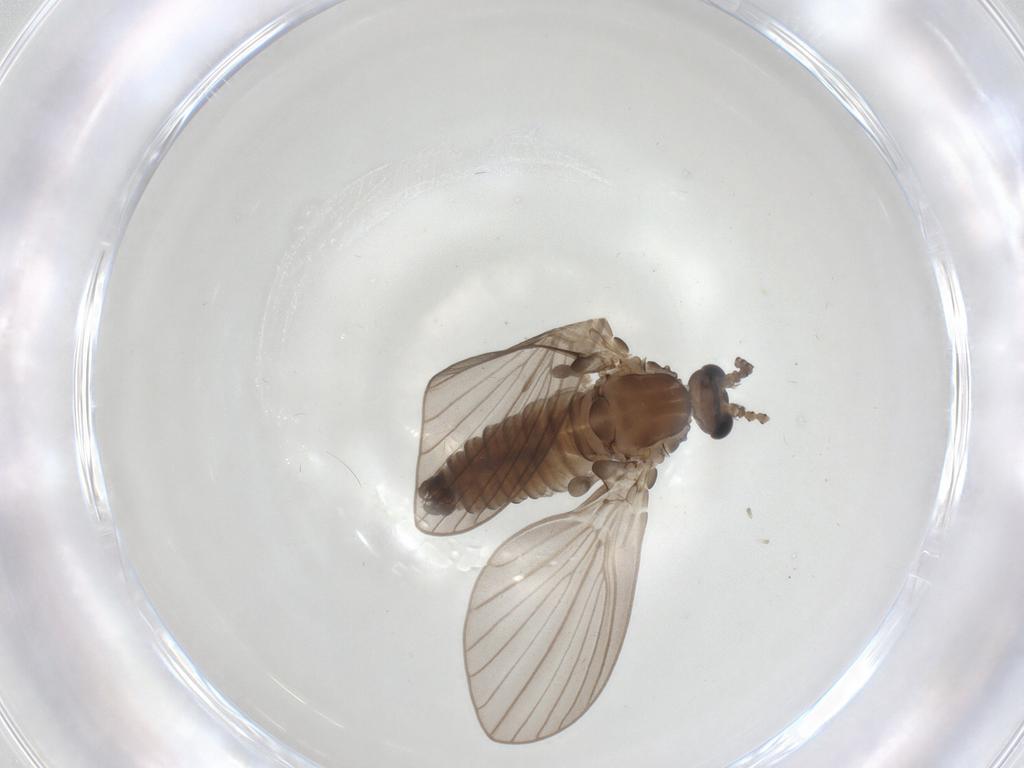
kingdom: Animalia
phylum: Arthropoda
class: Insecta
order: Diptera
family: Psychodidae
